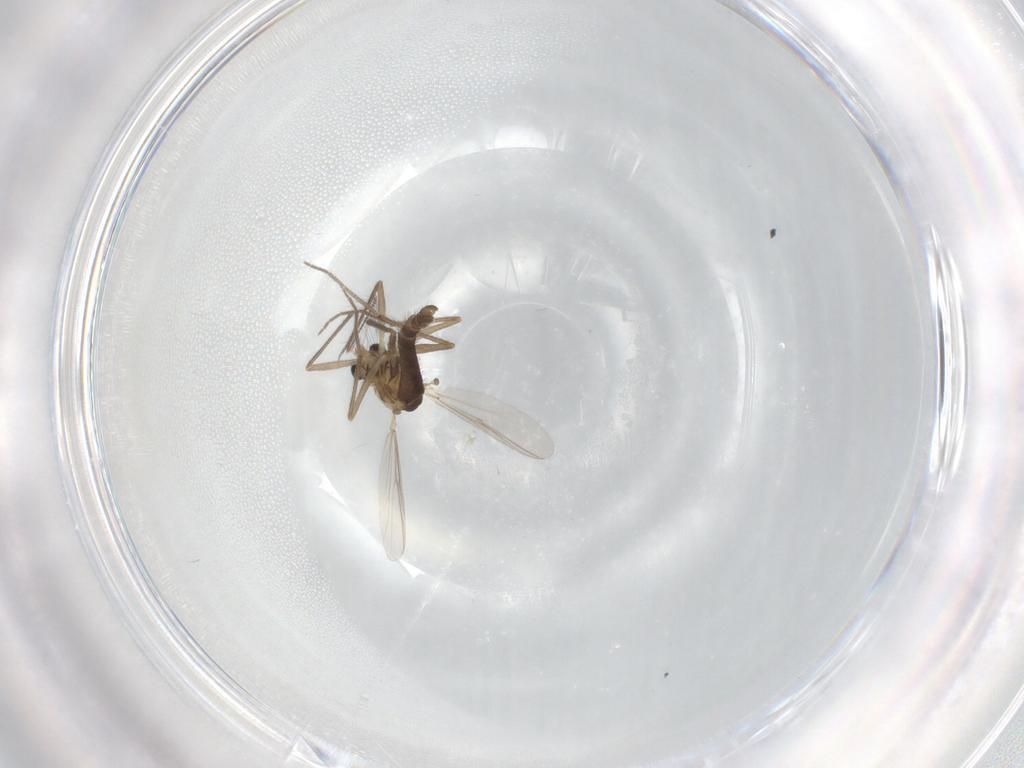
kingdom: Animalia
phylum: Arthropoda
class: Insecta
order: Diptera
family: Chironomidae
